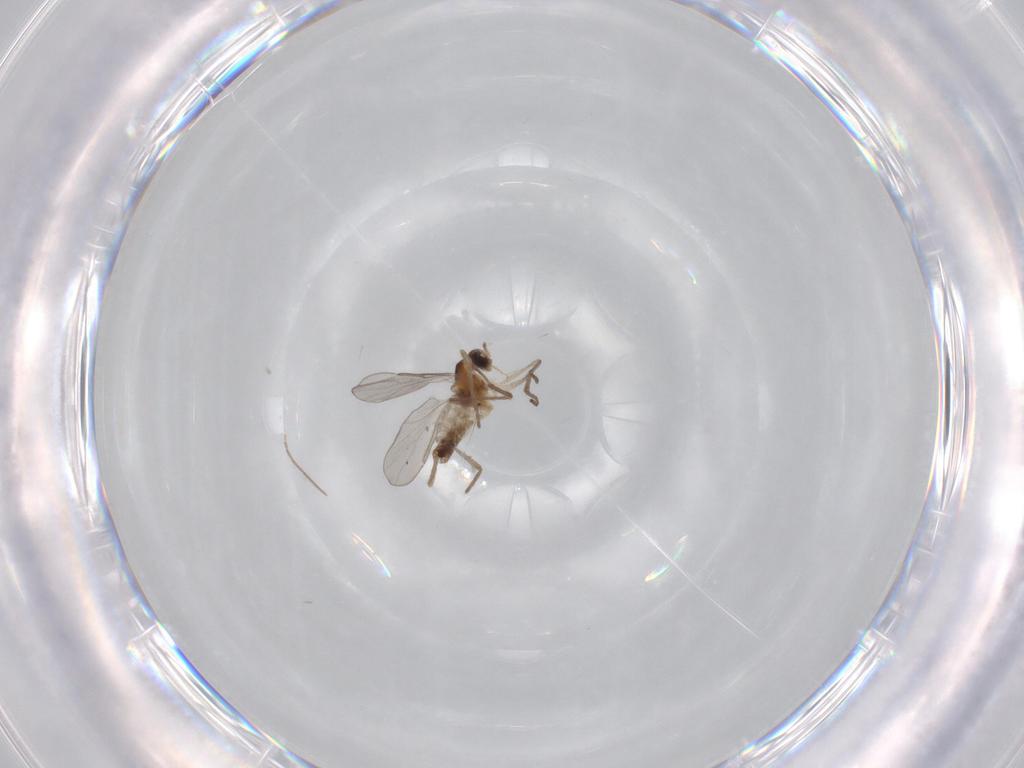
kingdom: Animalia
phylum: Arthropoda
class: Insecta
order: Diptera
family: Cecidomyiidae
